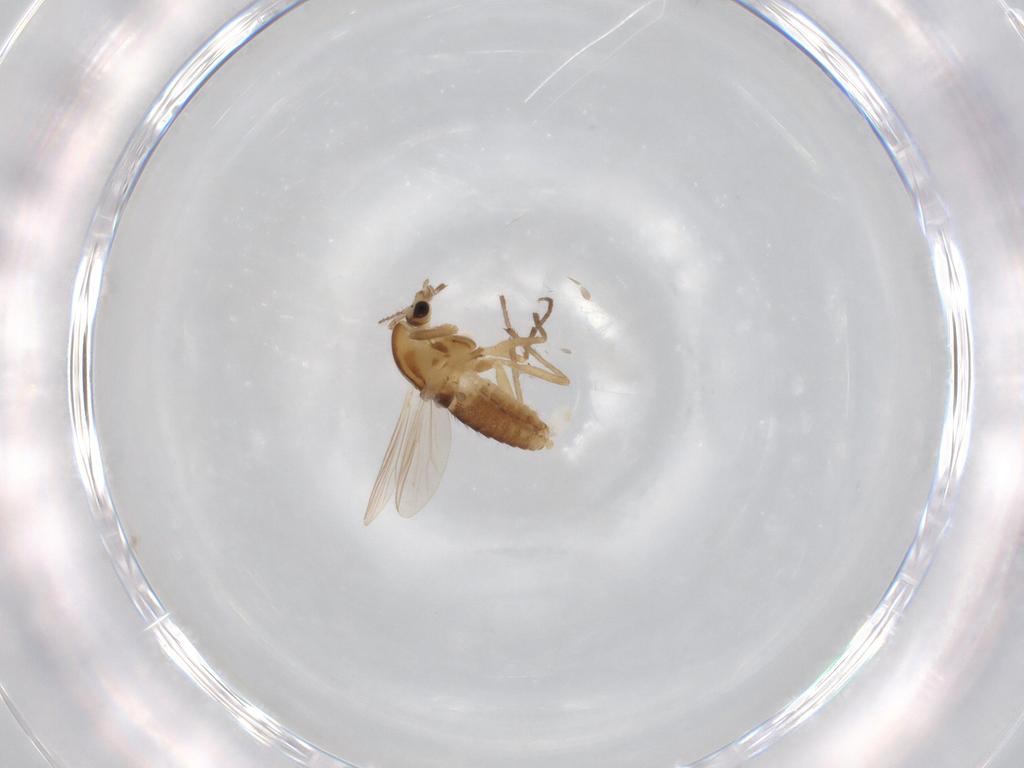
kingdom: Animalia
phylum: Arthropoda
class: Insecta
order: Diptera
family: Chironomidae
